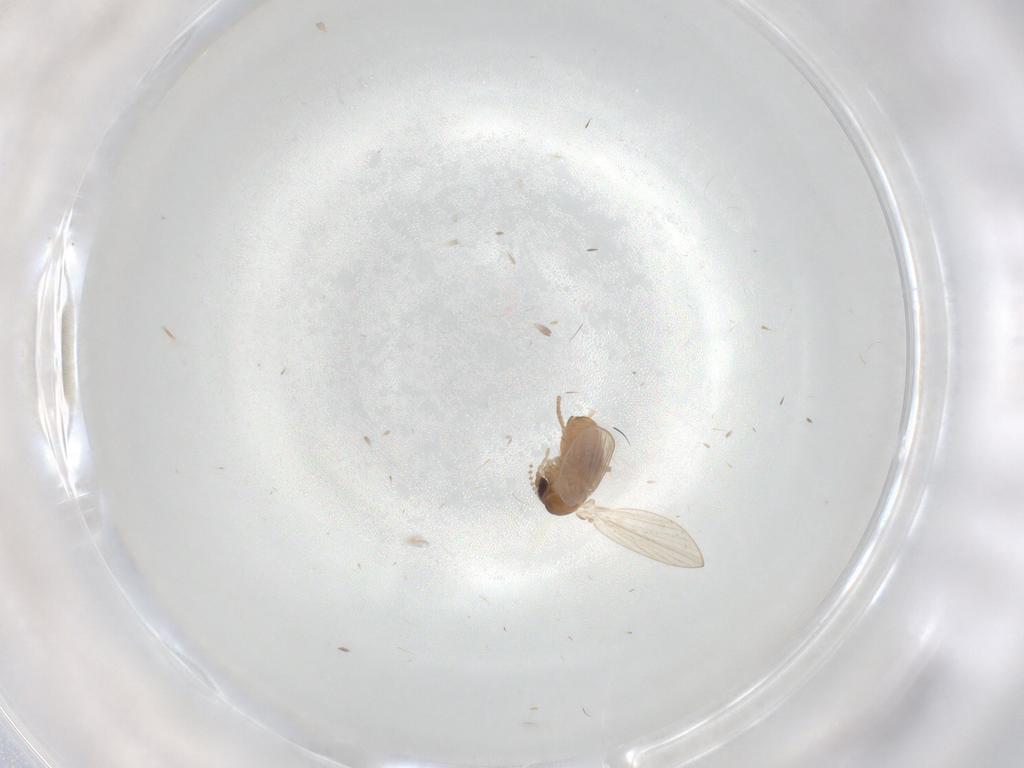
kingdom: Animalia
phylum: Arthropoda
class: Insecta
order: Diptera
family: Psychodidae
